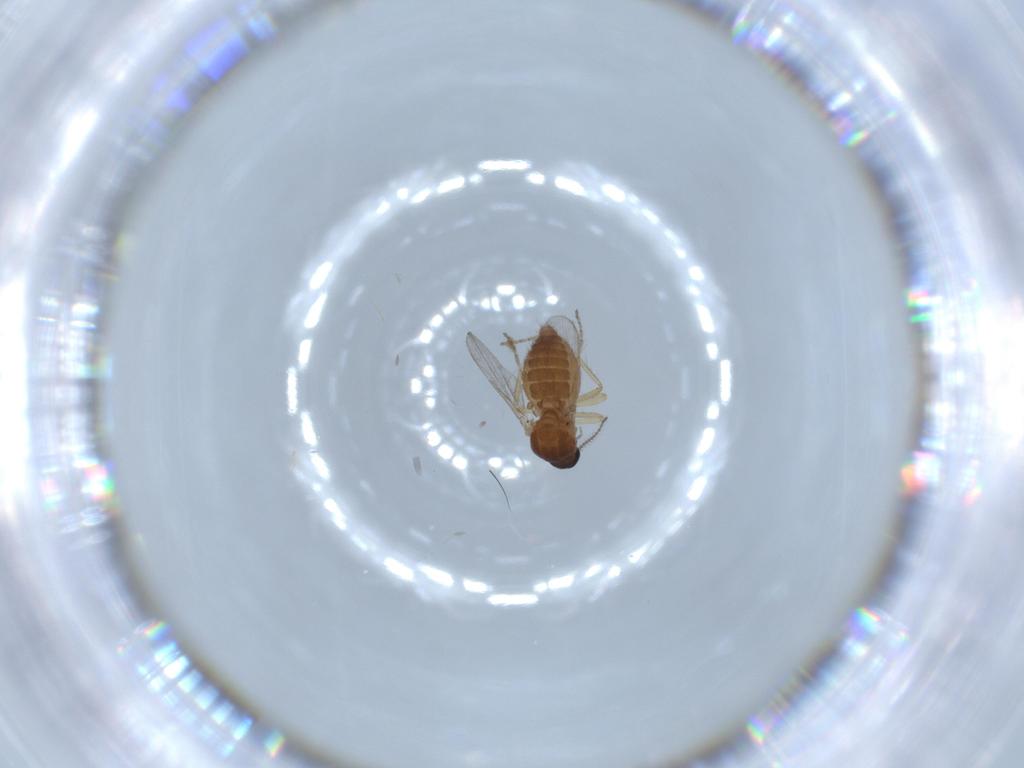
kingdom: Animalia
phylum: Arthropoda
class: Insecta
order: Diptera
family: Ceratopogonidae
